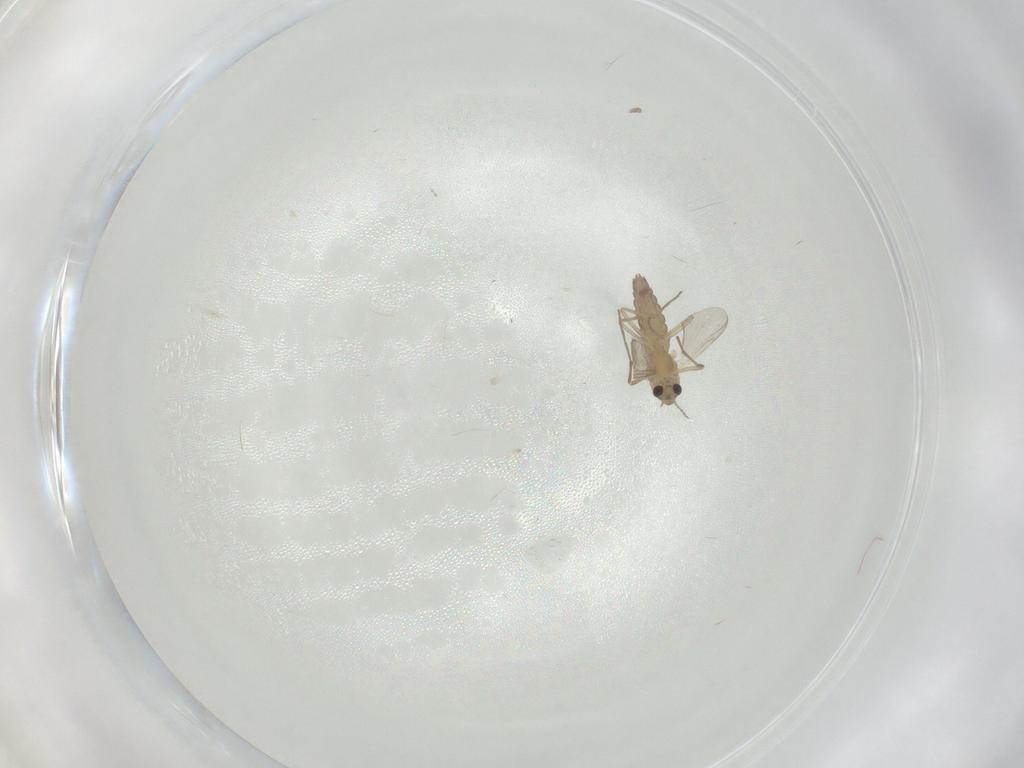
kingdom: Animalia
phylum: Arthropoda
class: Insecta
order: Diptera
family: Chironomidae
